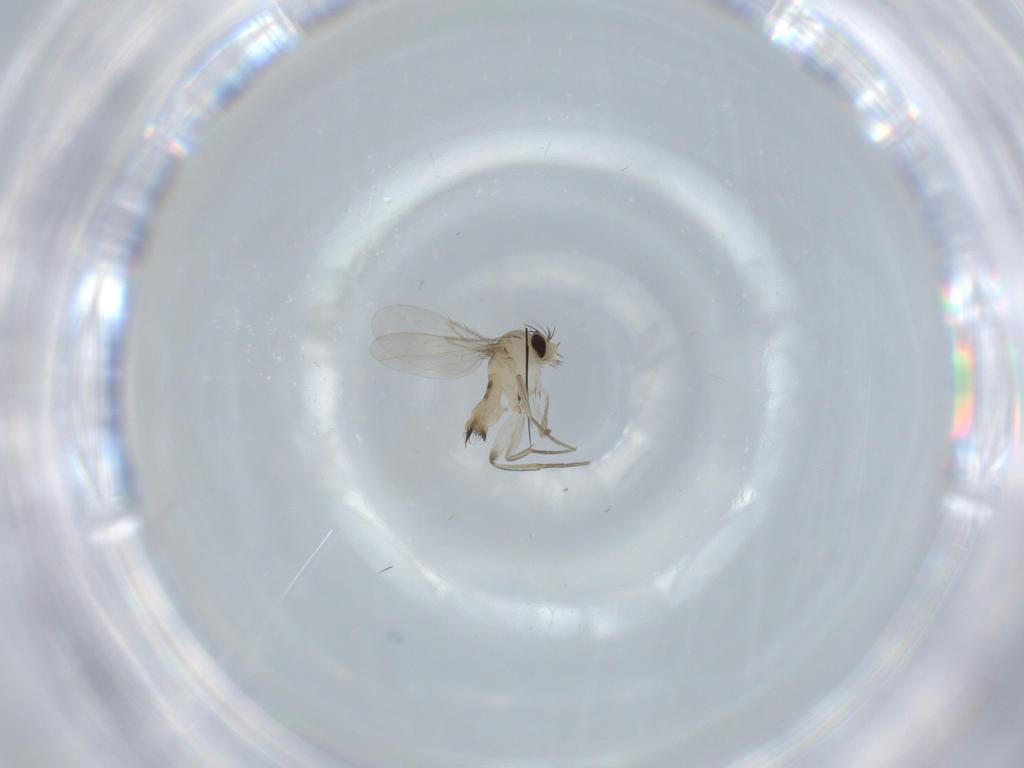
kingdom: Animalia
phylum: Arthropoda
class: Insecta
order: Diptera
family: Phoridae
